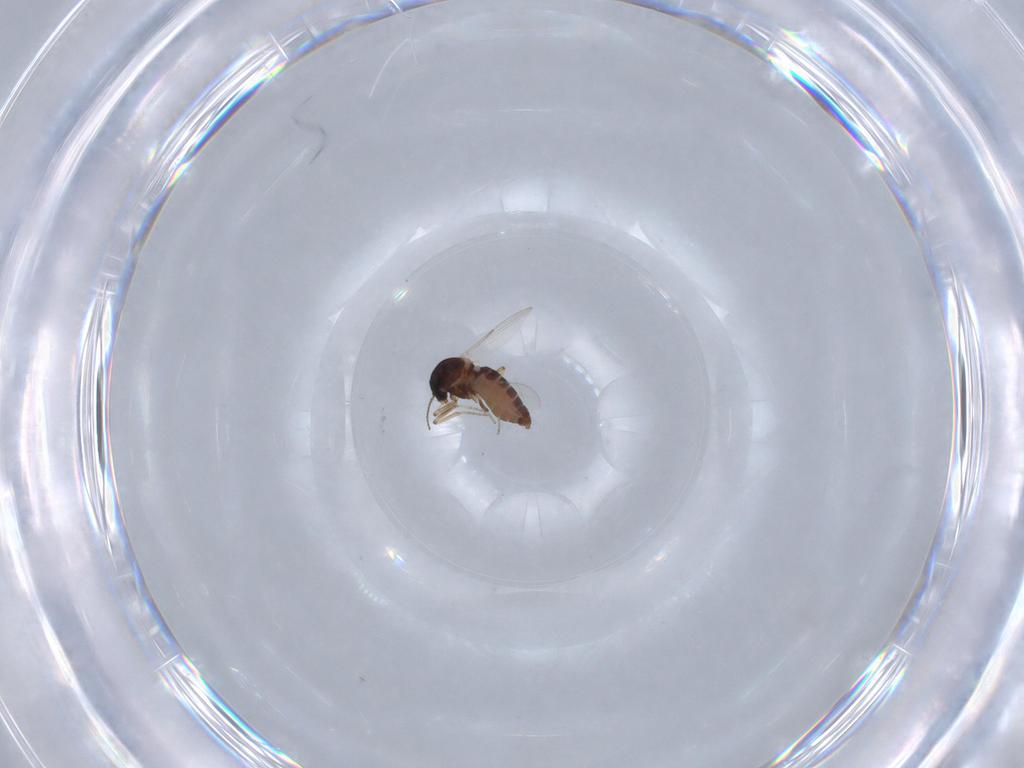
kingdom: Animalia
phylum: Arthropoda
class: Insecta
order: Diptera
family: Ceratopogonidae
